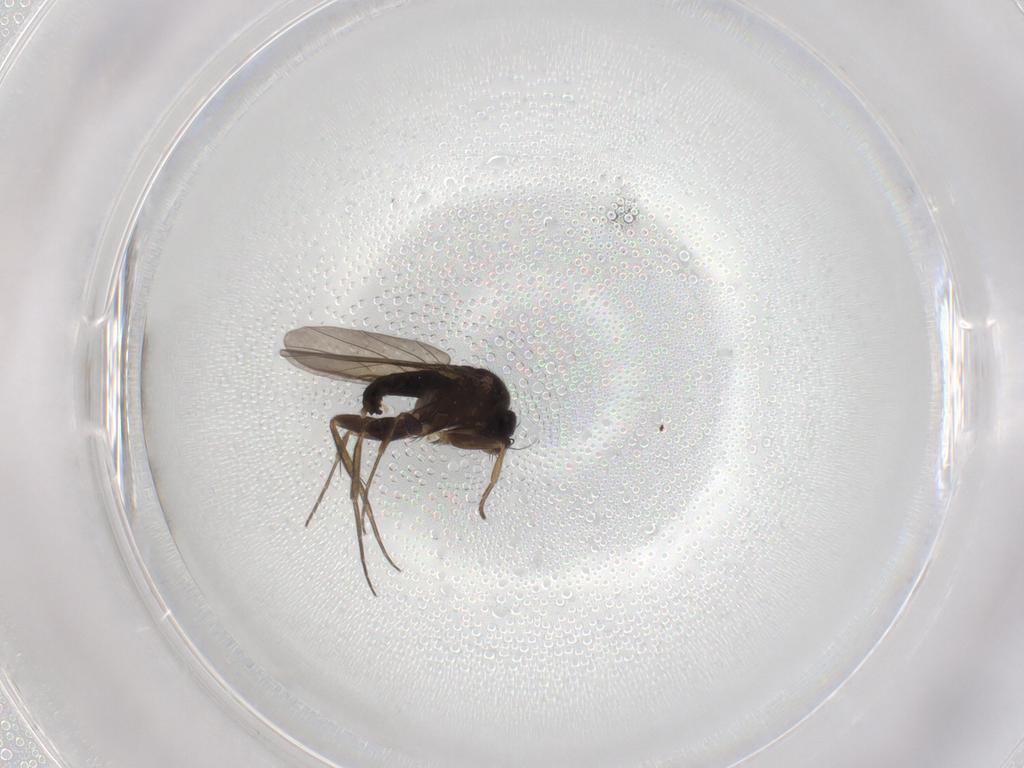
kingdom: Animalia
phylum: Arthropoda
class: Insecta
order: Diptera
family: Phoridae
